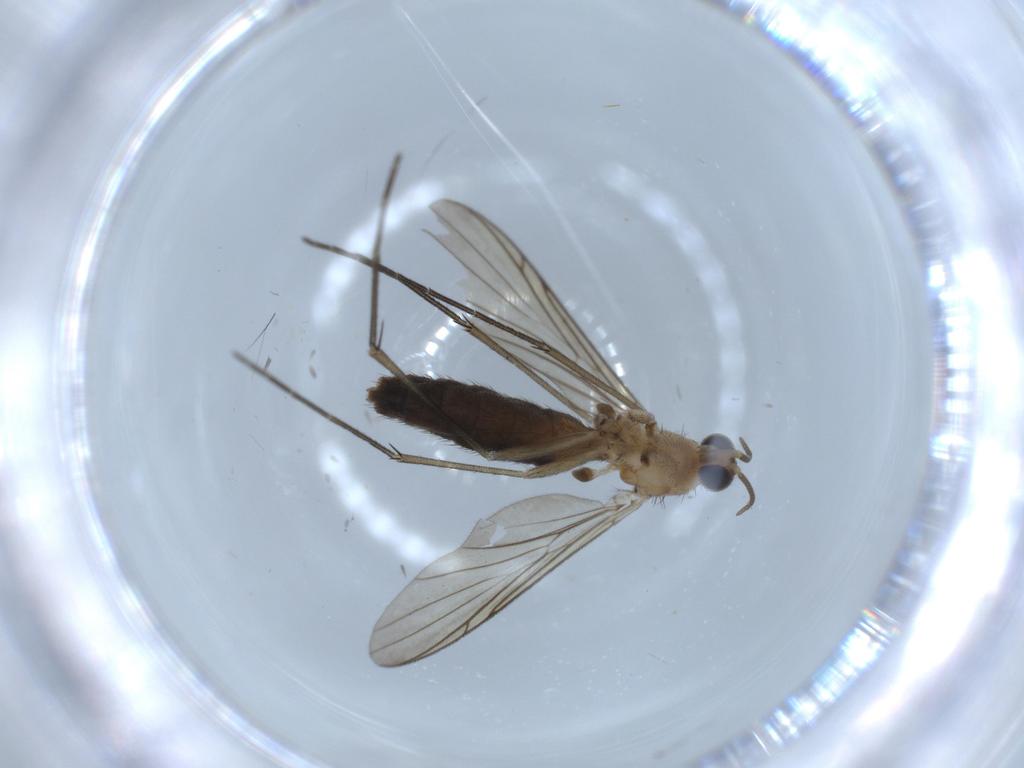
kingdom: Animalia
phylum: Arthropoda
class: Insecta
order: Diptera
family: Keroplatidae
